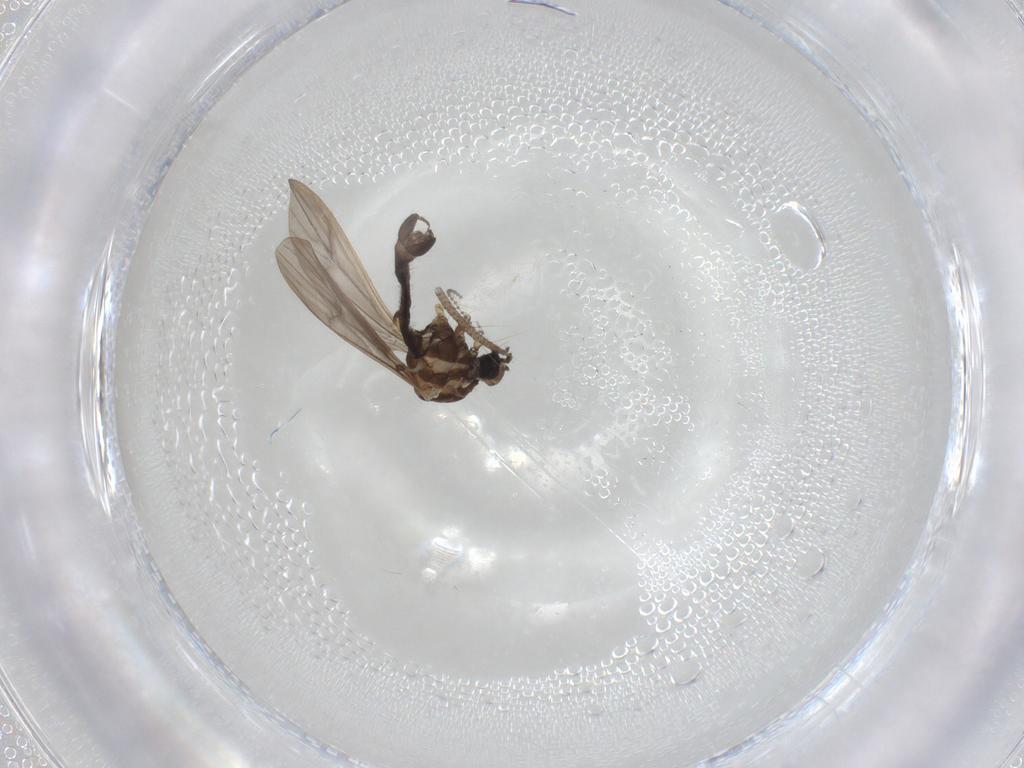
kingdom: Animalia
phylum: Arthropoda
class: Insecta
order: Diptera
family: Limoniidae
